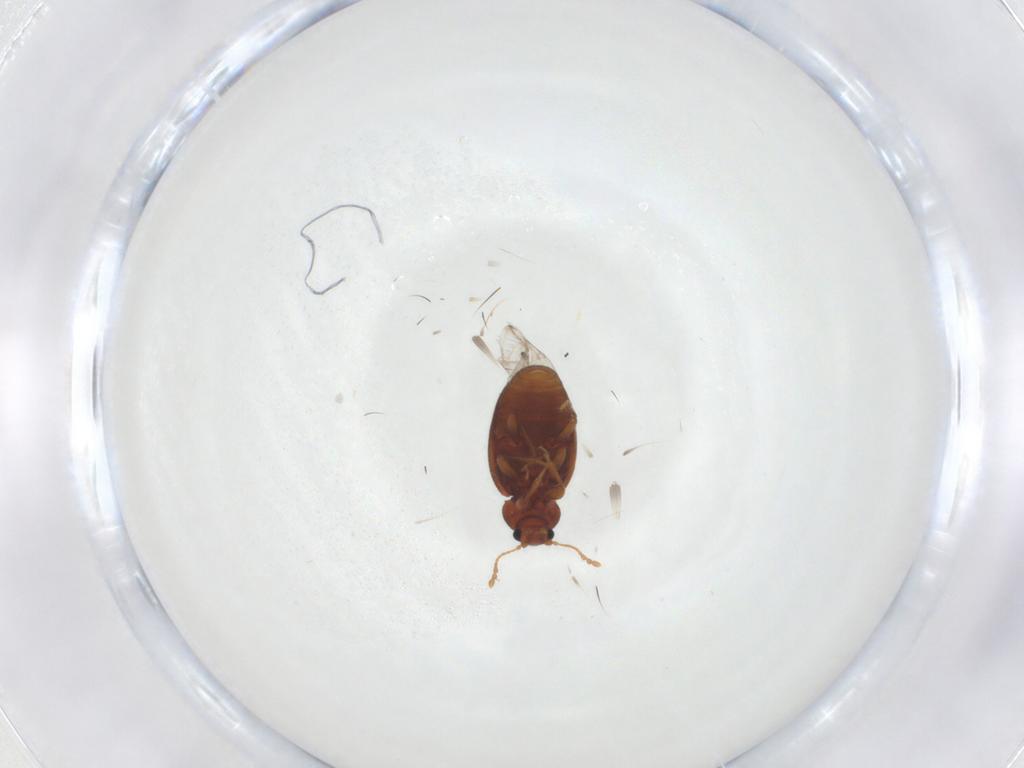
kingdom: Animalia
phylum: Arthropoda
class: Insecta
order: Coleoptera
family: Latridiidae
